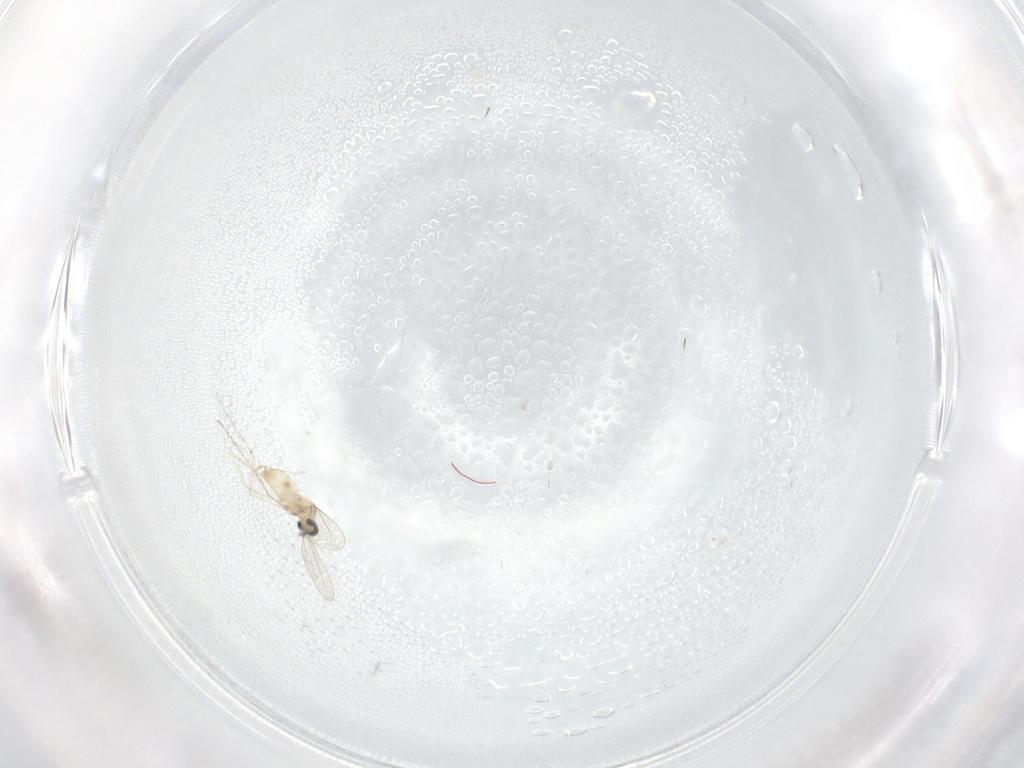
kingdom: Animalia
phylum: Arthropoda
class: Insecta
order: Diptera
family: Cecidomyiidae
